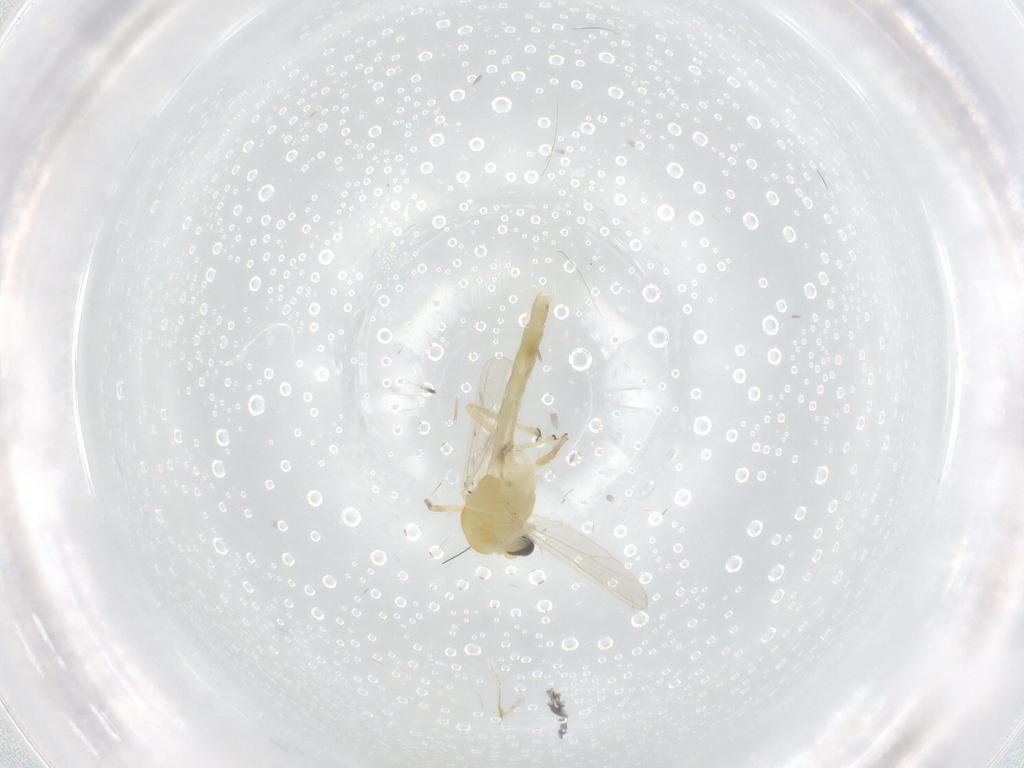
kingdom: Animalia
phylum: Arthropoda
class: Insecta
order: Diptera
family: Chironomidae
